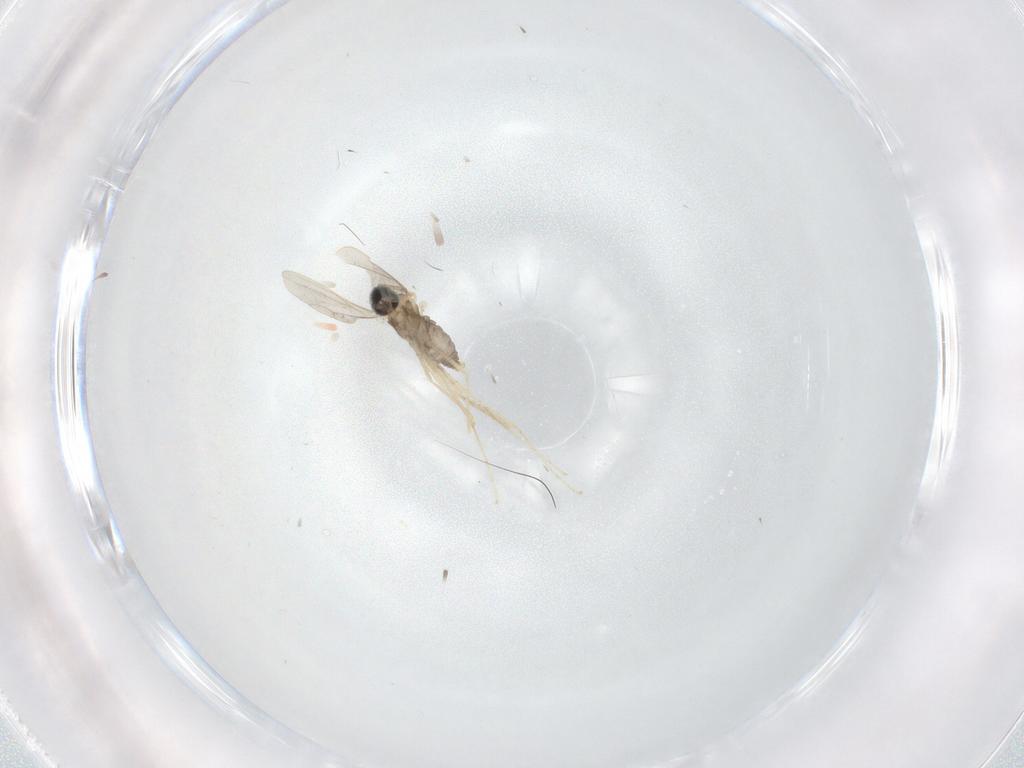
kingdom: Animalia
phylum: Arthropoda
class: Insecta
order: Diptera
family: Cecidomyiidae
